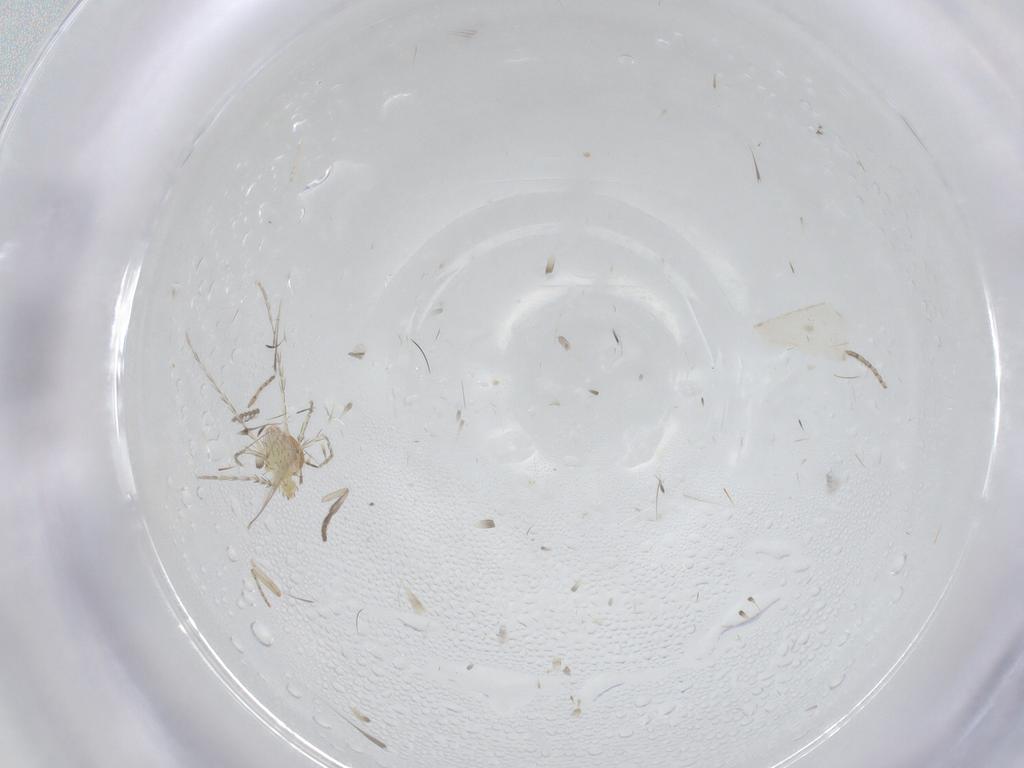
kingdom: Animalia
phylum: Arthropoda
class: Insecta
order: Diptera
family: Psychodidae
